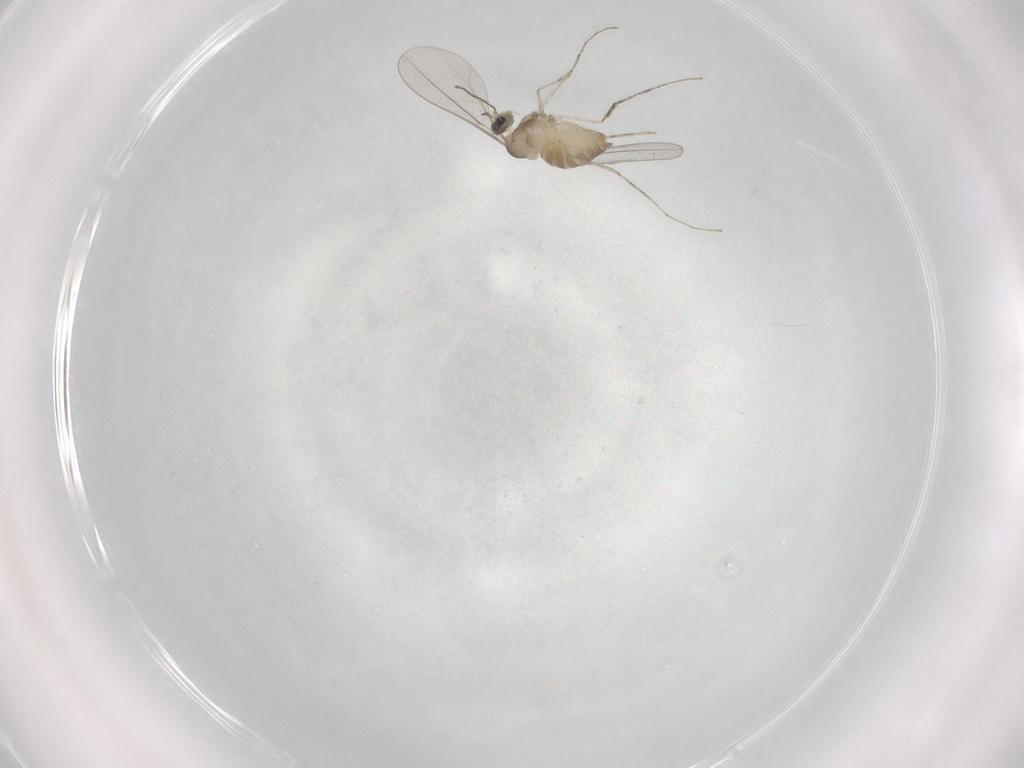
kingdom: Animalia
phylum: Arthropoda
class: Insecta
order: Diptera
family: Cecidomyiidae
